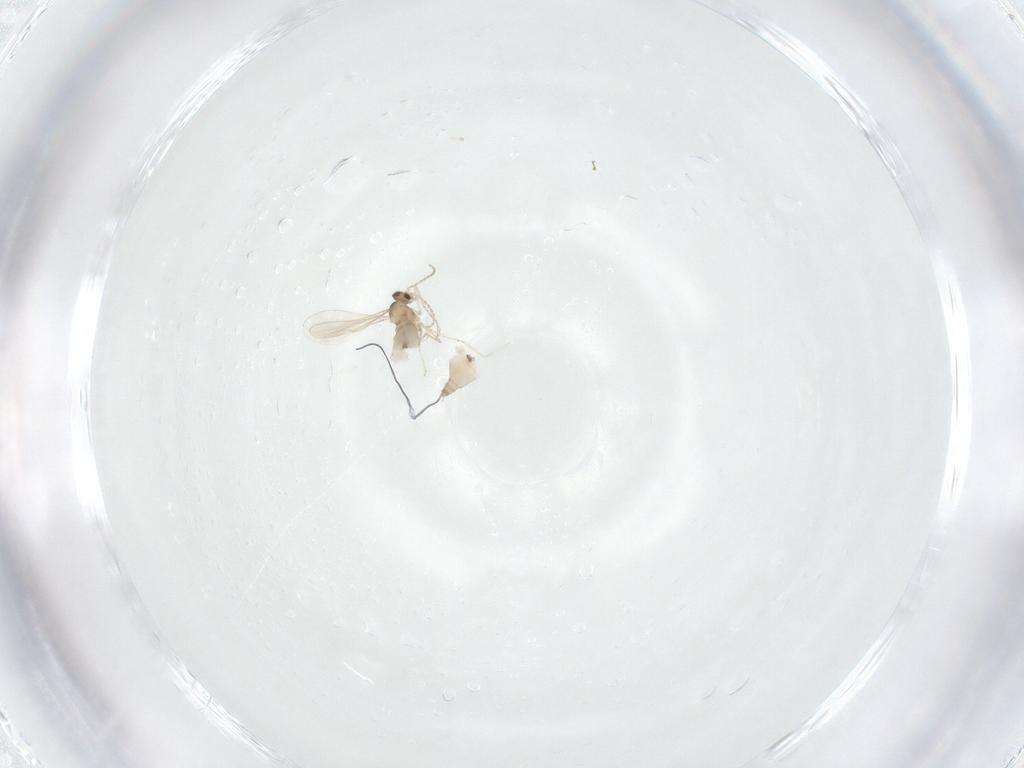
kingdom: Animalia
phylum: Arthropoda
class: Insecta
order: Diptera
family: Cecidomyiidae
